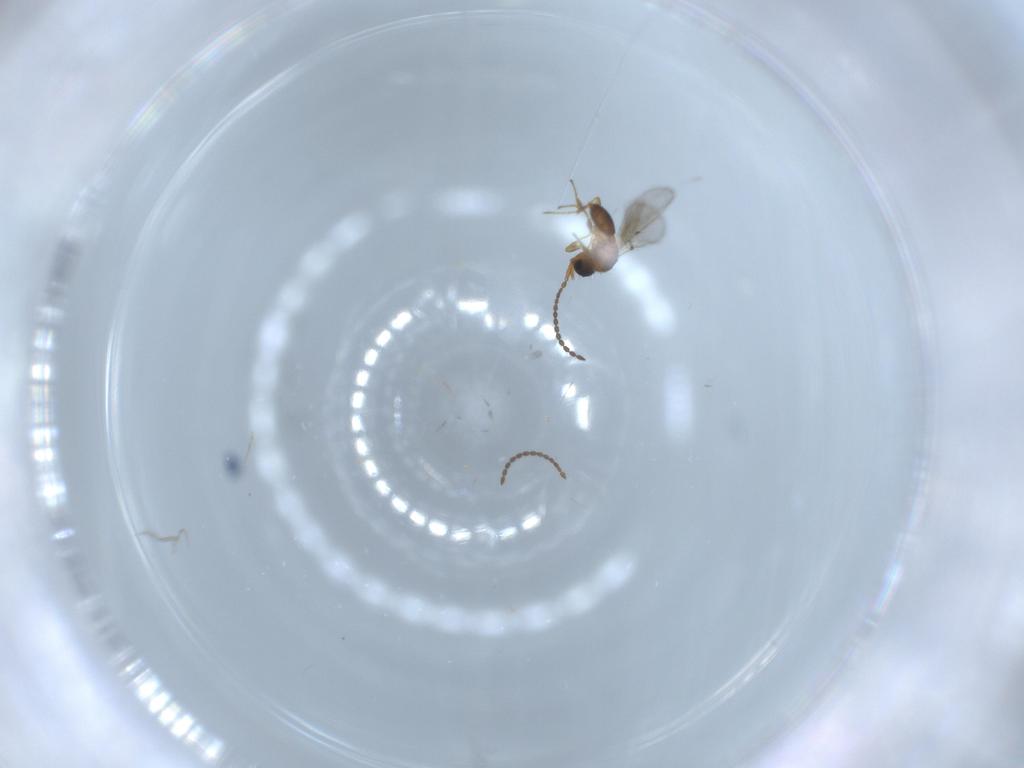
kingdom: Animalia
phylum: Arthropoda
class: Insecta
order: Hymenoptera
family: Diapriidae
